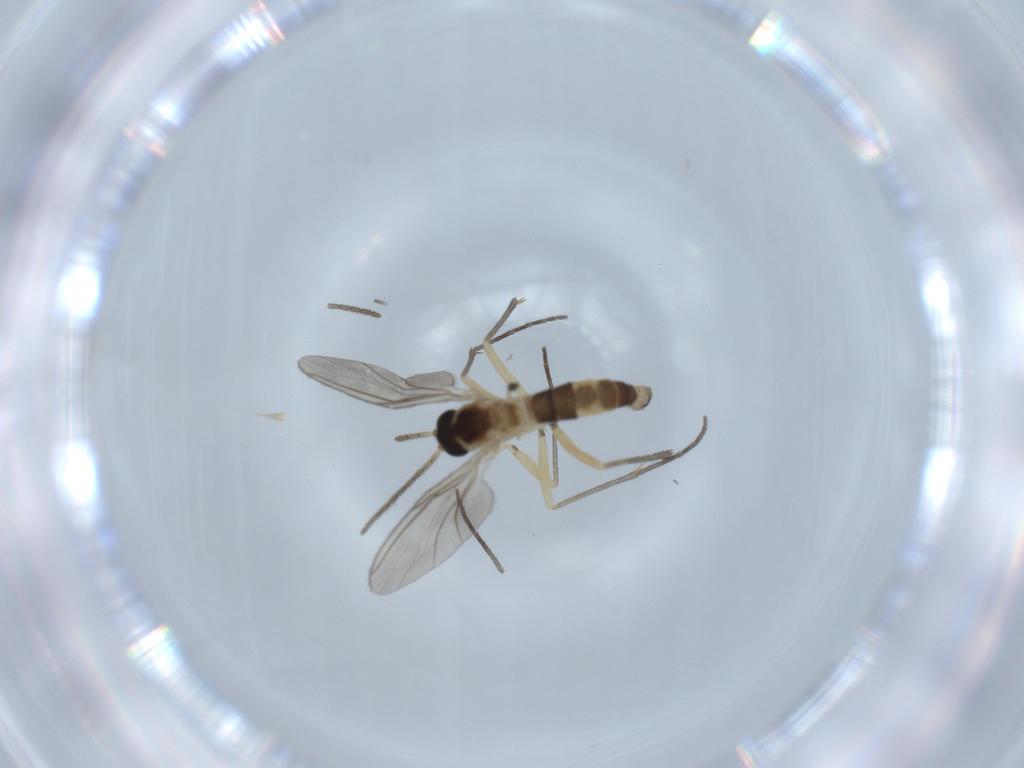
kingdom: Animalia
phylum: Arthropoda
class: Insecta
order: Diptera
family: Sciaridae
